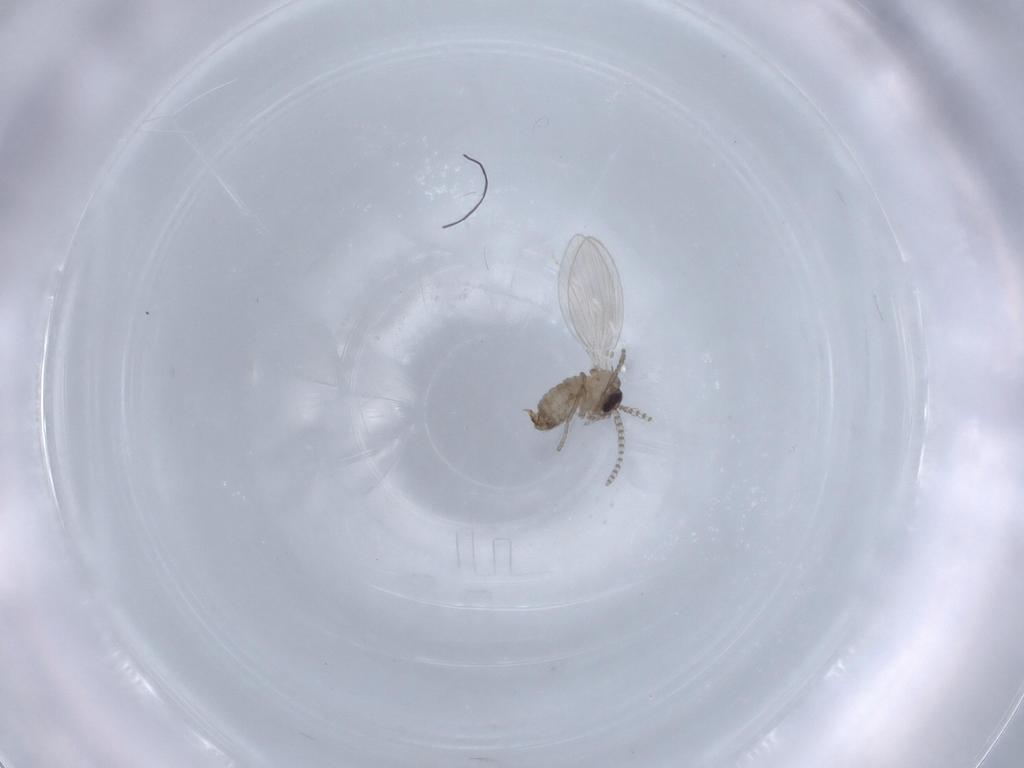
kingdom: Animalia
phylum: Arthropoda
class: Insecta
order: Diptera
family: Psychodidae
